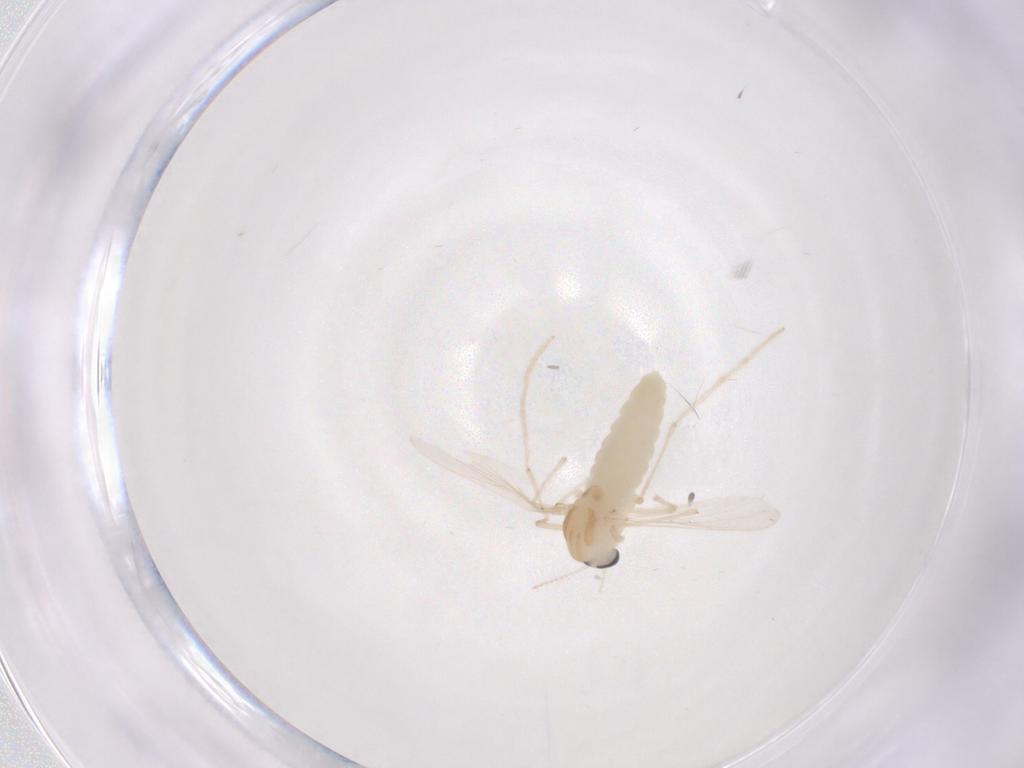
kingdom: Animalia
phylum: Arthropoda
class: Insecta
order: Diptera
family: Chironomidae
